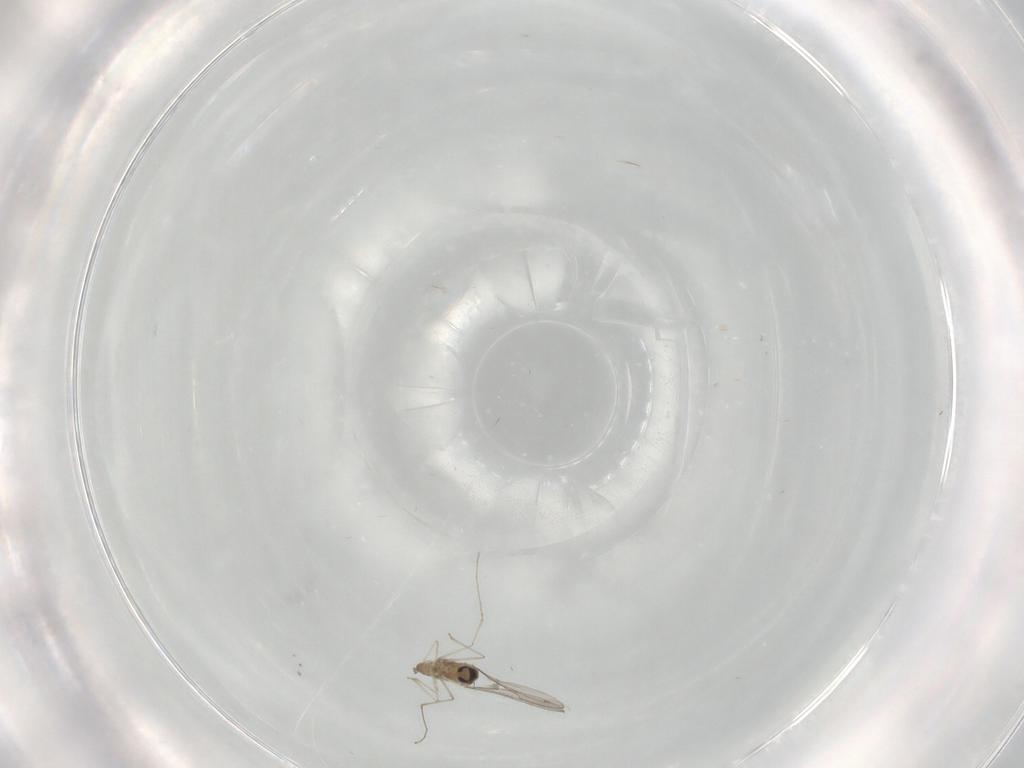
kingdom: Animalia
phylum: Arthropoda
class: Insecta
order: Diptera
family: Cecidomyiidae
